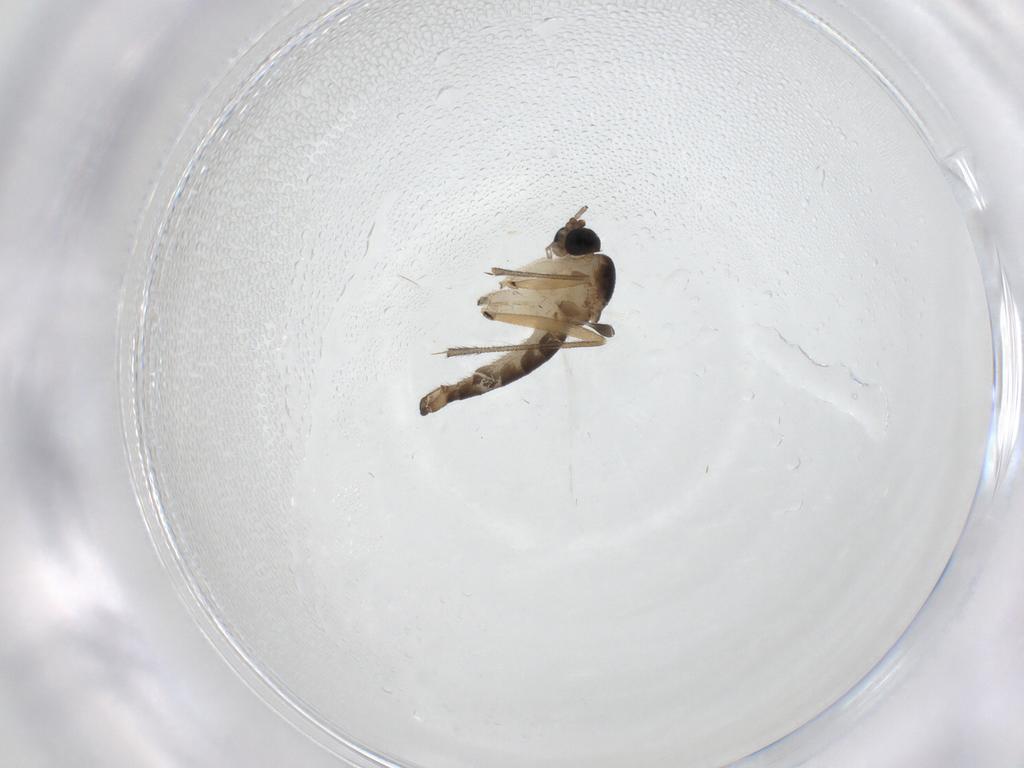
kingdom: Animalia
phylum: Arthropoda
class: Insecta
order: Diptera
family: Sciaridae
